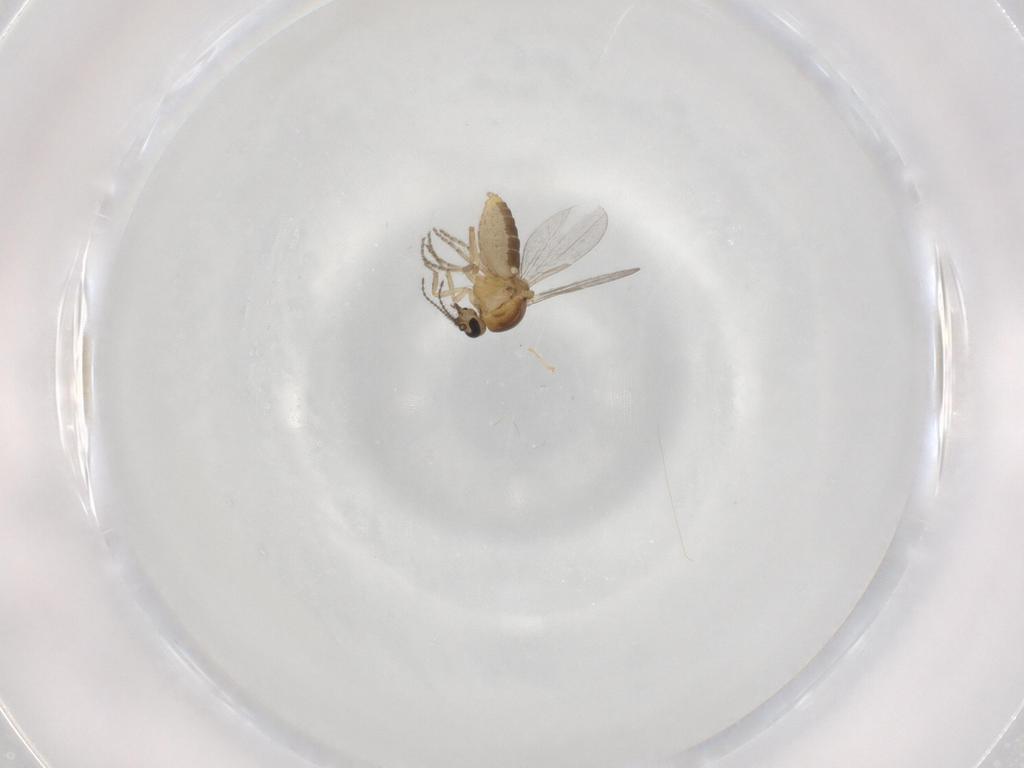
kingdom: Animalia
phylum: Arthropoda
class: Insecta
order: Diptera
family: Ceratopogonidae
